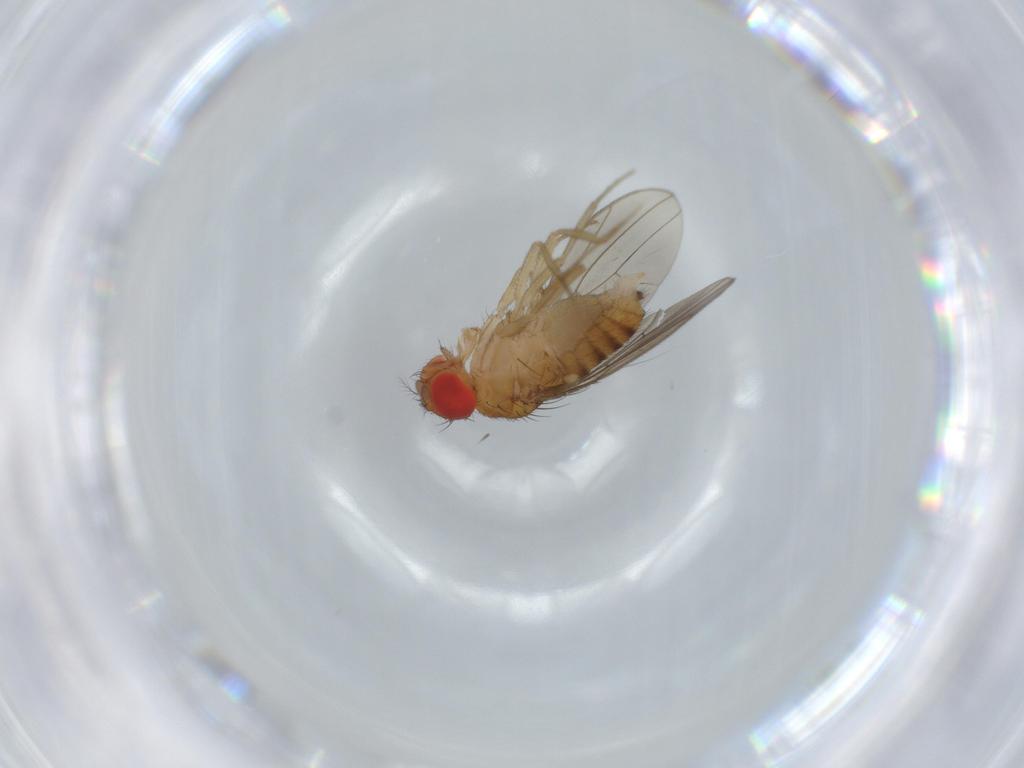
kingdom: Animalia
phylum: Arthropoda
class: Insecta
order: Diptera
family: Drosophilidae
